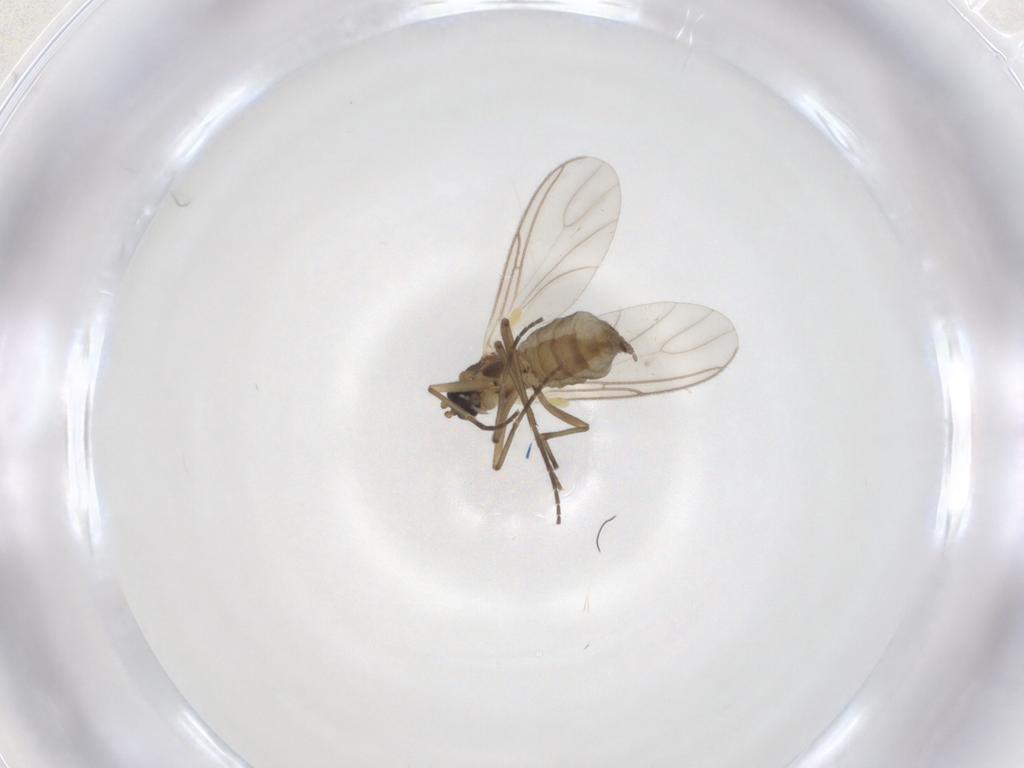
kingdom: Animalia
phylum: Arthropoda
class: Insecta
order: Diptera
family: Sciaridae
